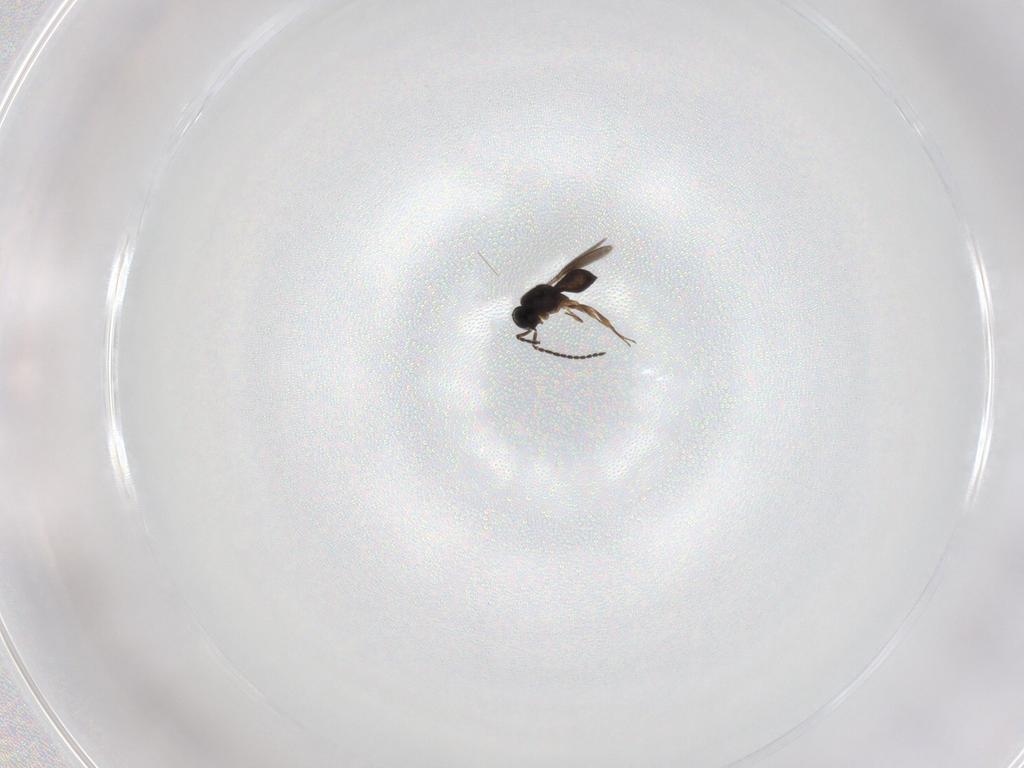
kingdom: Animalia
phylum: Arthropoda
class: Insecta
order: Hymenoptera
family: Scelionidae
